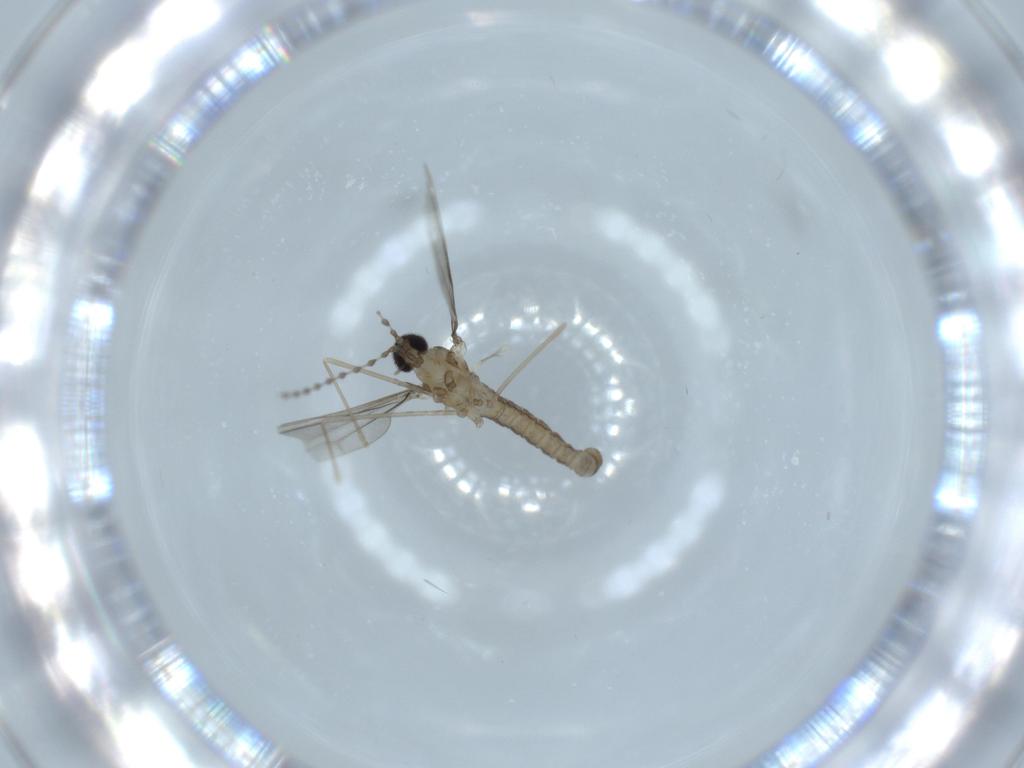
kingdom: Animalia
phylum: Arthropoda
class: Insecta
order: Diptera
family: Cecidomyiidae
